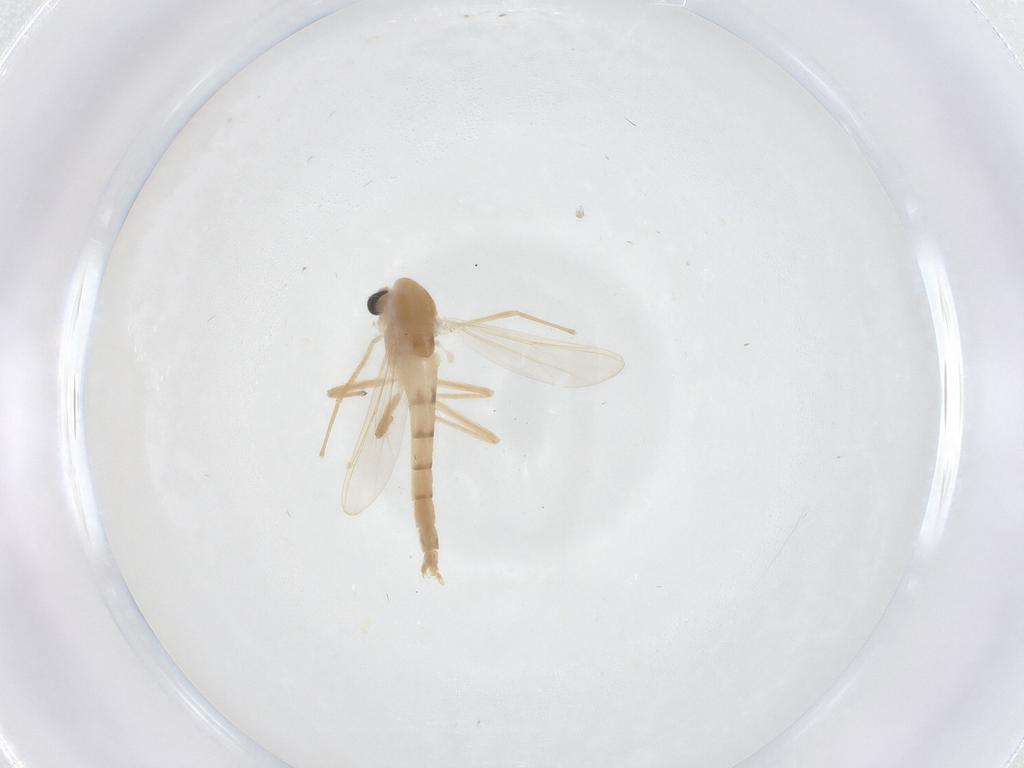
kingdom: Animalia
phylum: Arthropoda
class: Insecta
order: Diptera
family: Chironomidae
